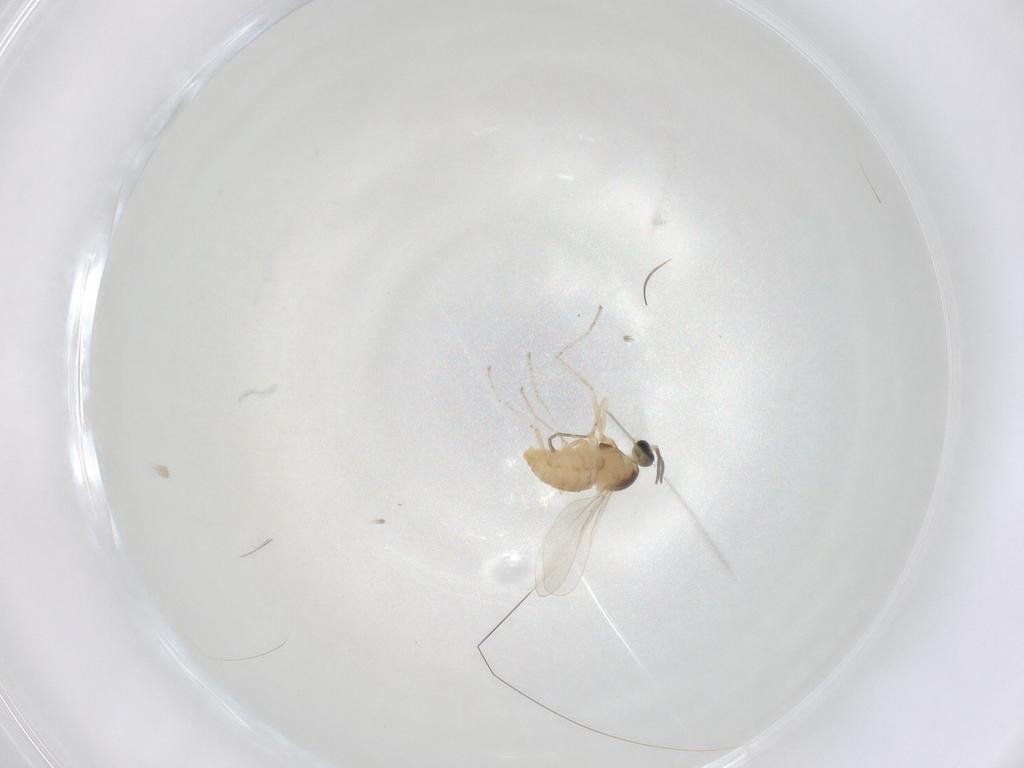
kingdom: Animalia
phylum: Arthropoda
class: Insecta
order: Diptera
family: Cecidomyiidae
